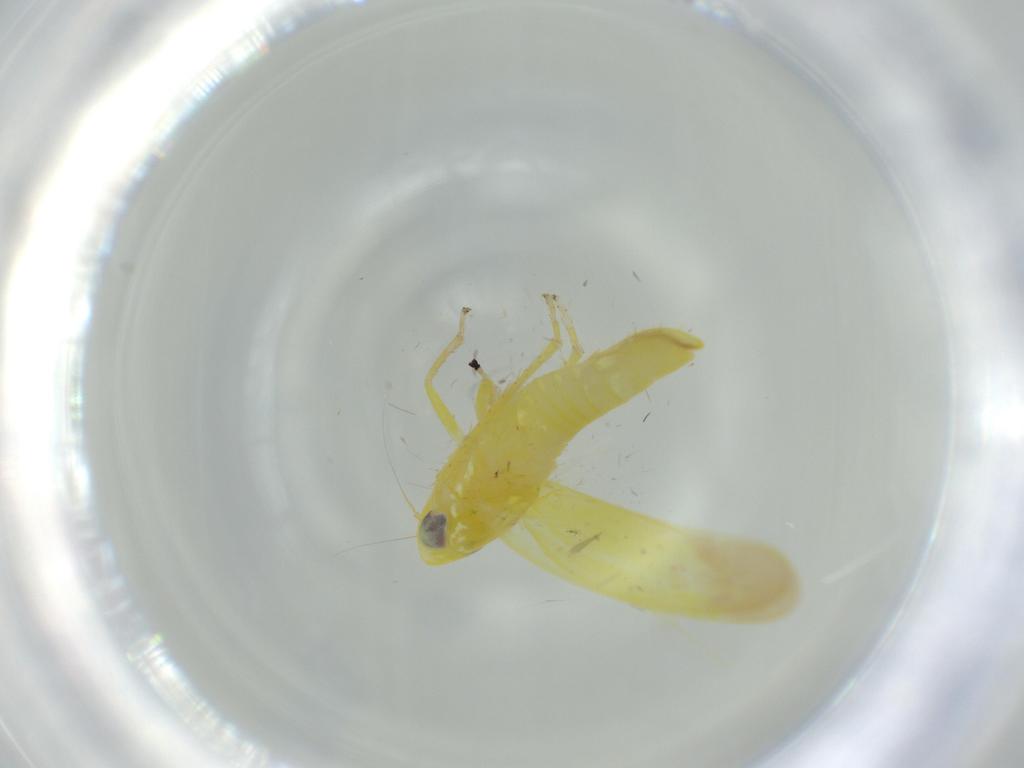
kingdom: Animalia
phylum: Arthropoda
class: Insecta
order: Hemiptera
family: Cicadellidae
